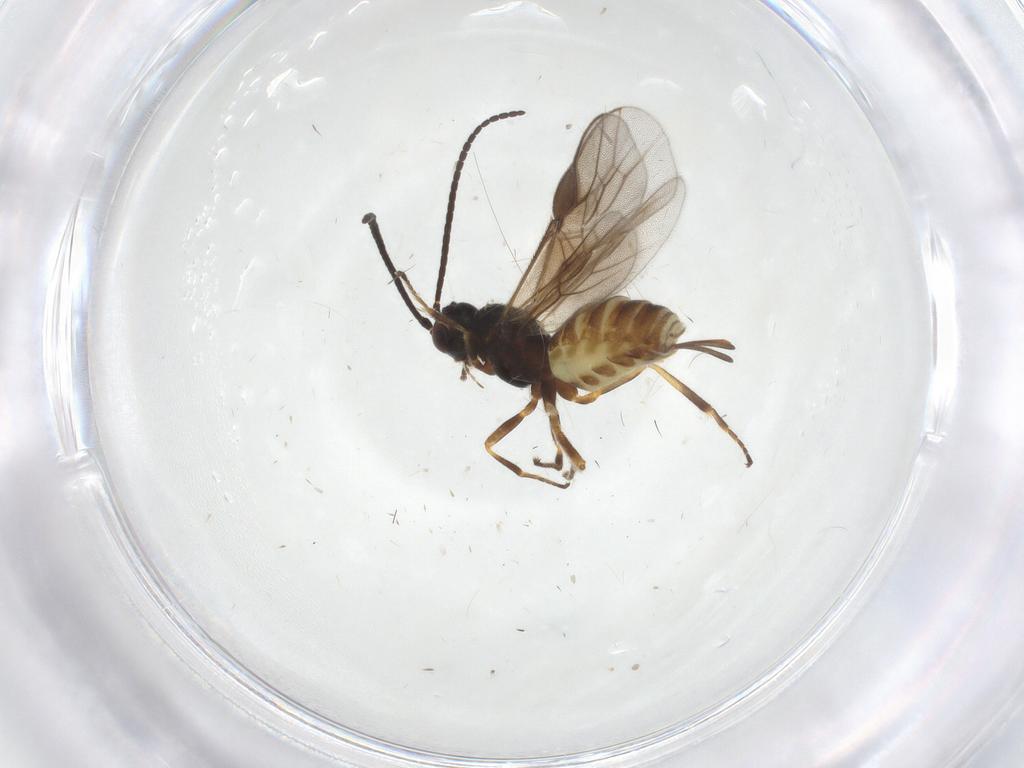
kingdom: Animalia
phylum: Arthropoda
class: Insecta
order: Hymenoptera
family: Braconidae
